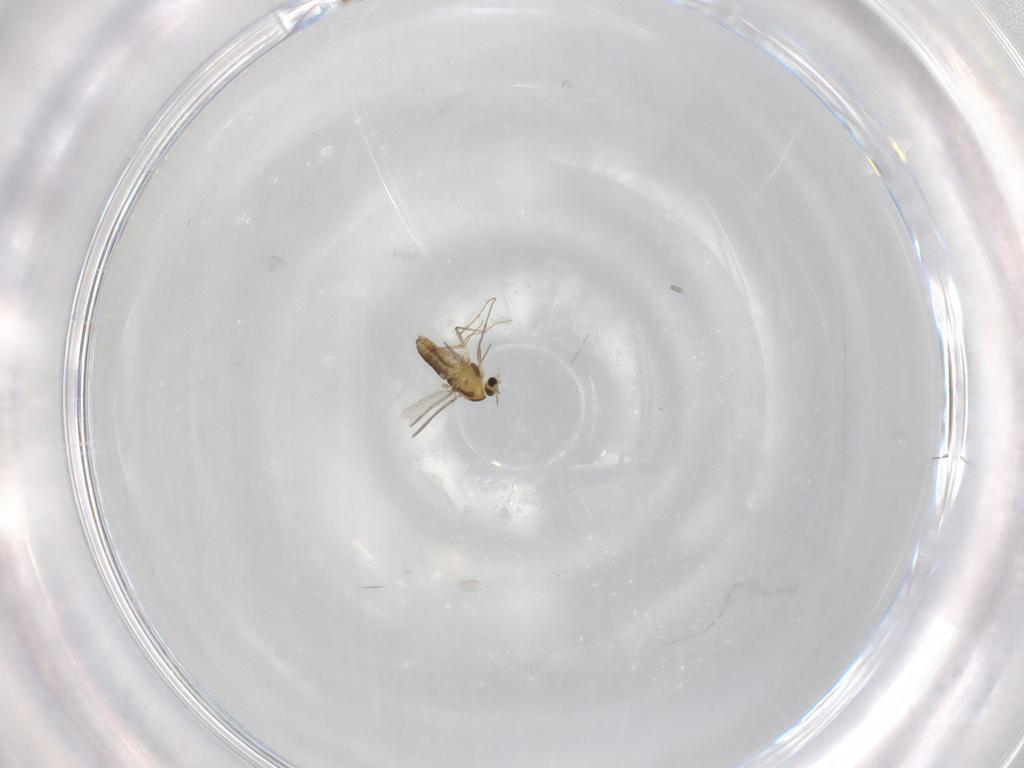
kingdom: Animalia
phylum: Arthropoda
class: Insecta
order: Diptera
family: Chironomidae
